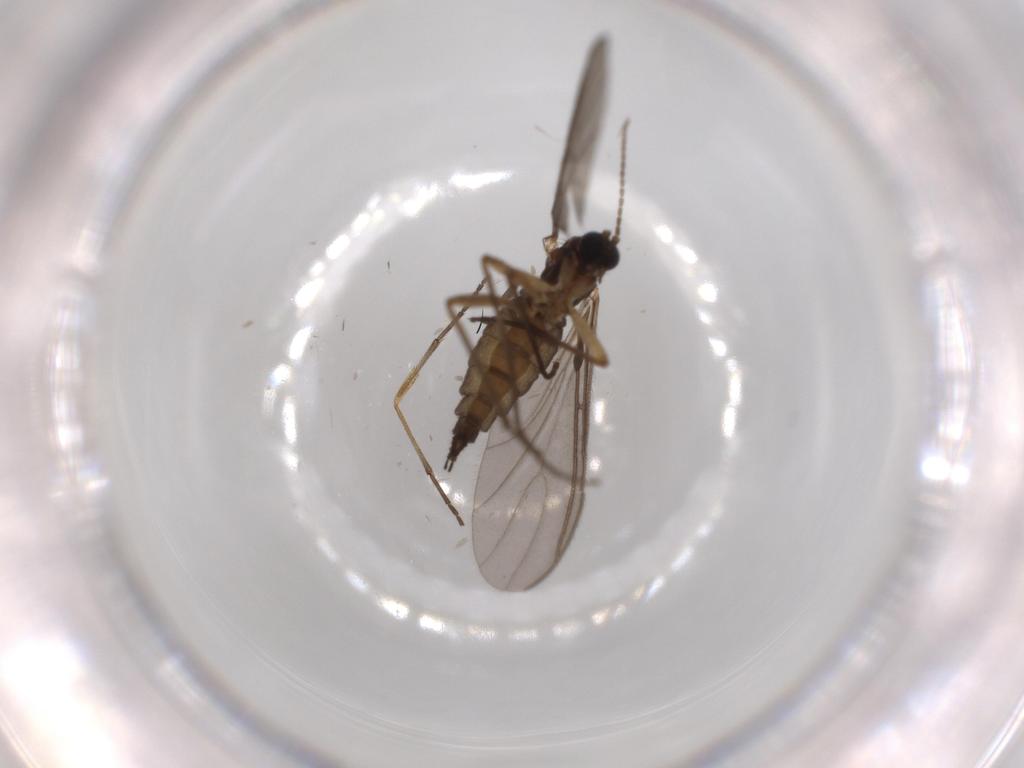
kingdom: Animalia
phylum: Arthropoda
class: Insecta
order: Diptera
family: Sciaridae
